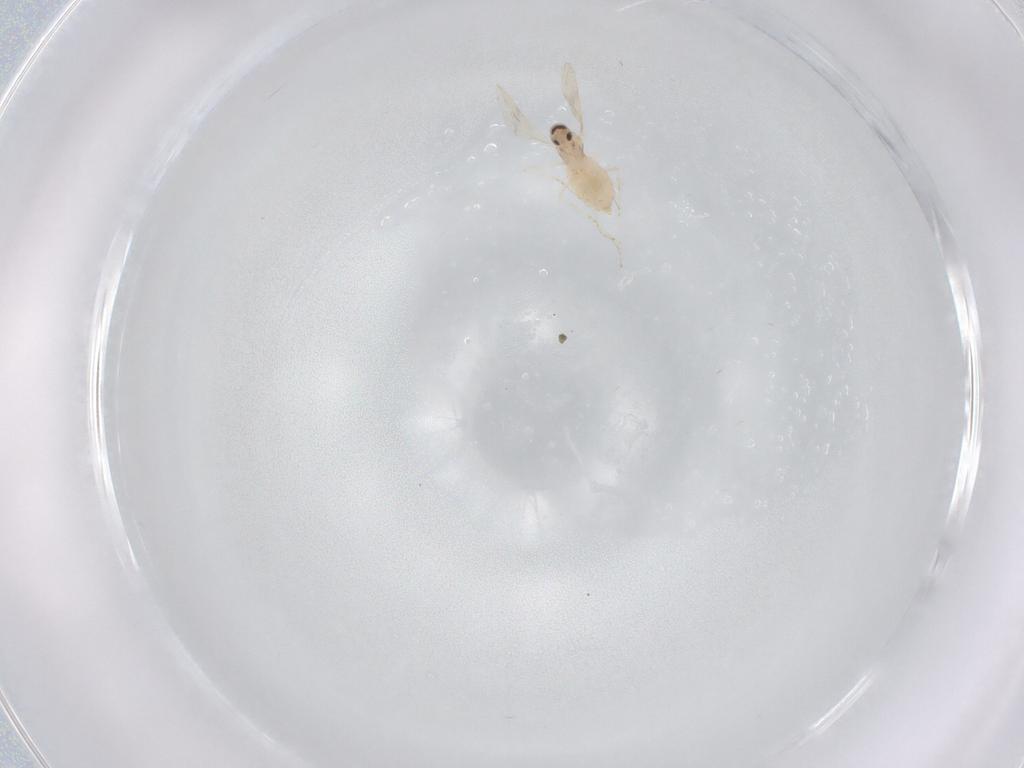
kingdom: Animalia
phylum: Arthropoda
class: Insecta
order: Diptera
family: Cecidomyiidae
